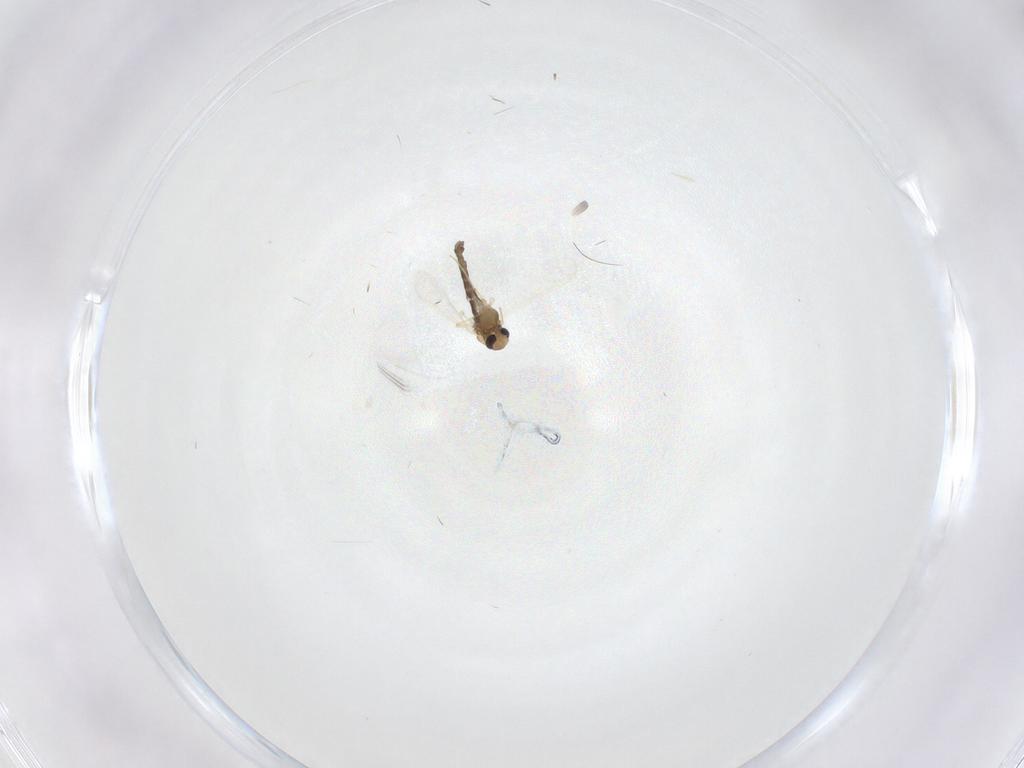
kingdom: Animalia
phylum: Arthropoda
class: Insecta
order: Diptera
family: Chironomidae
